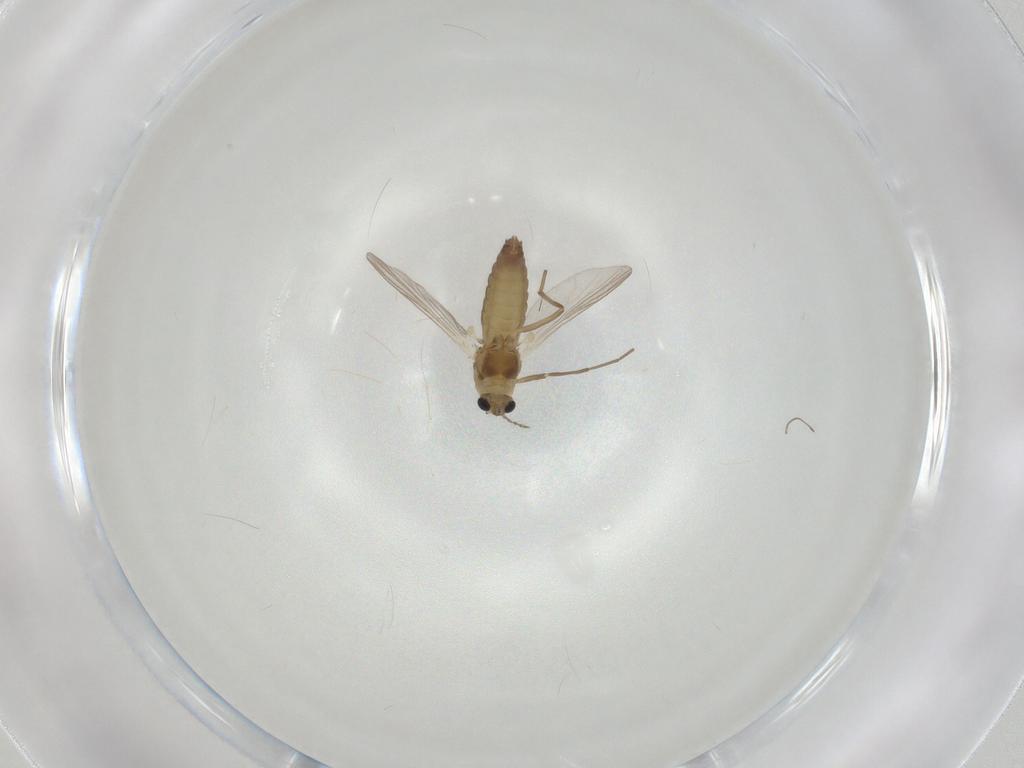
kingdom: Animalia
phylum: Arthropoda
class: Insecta
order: Diptera
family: Chironomidae
